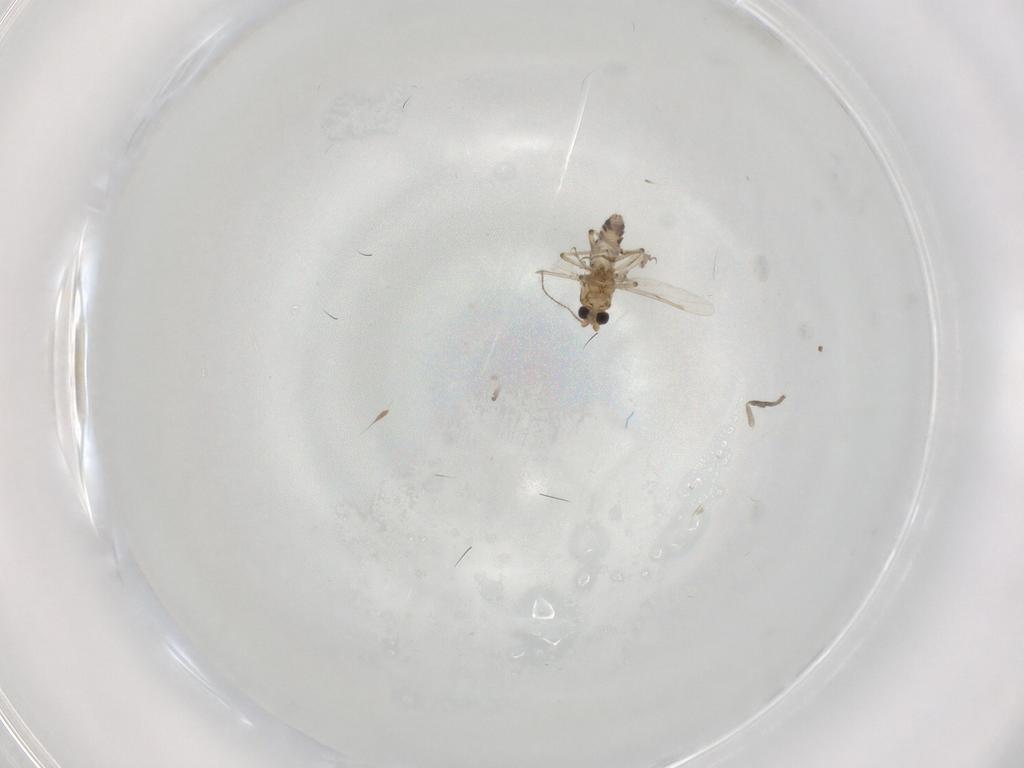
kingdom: Animalia
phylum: Arthropoda
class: Insecta
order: Diptera
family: Ceratopogonidae
